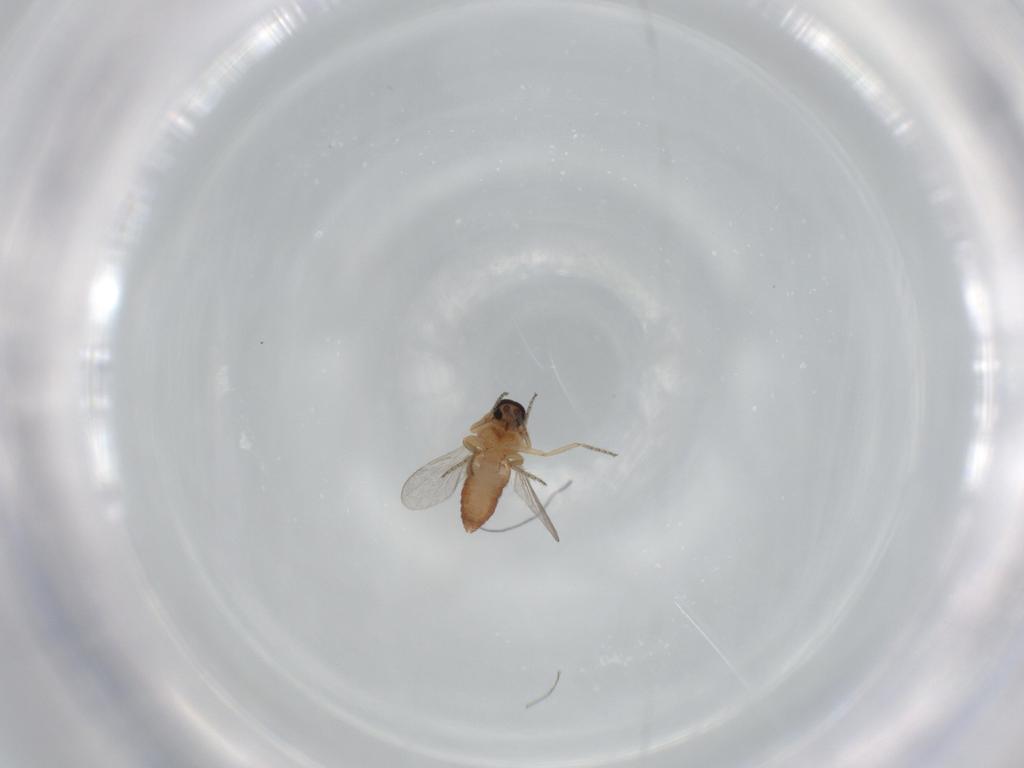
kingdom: Animalia
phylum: Arthropoda
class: Insecta
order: Diptera
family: Ceratopogonidae
